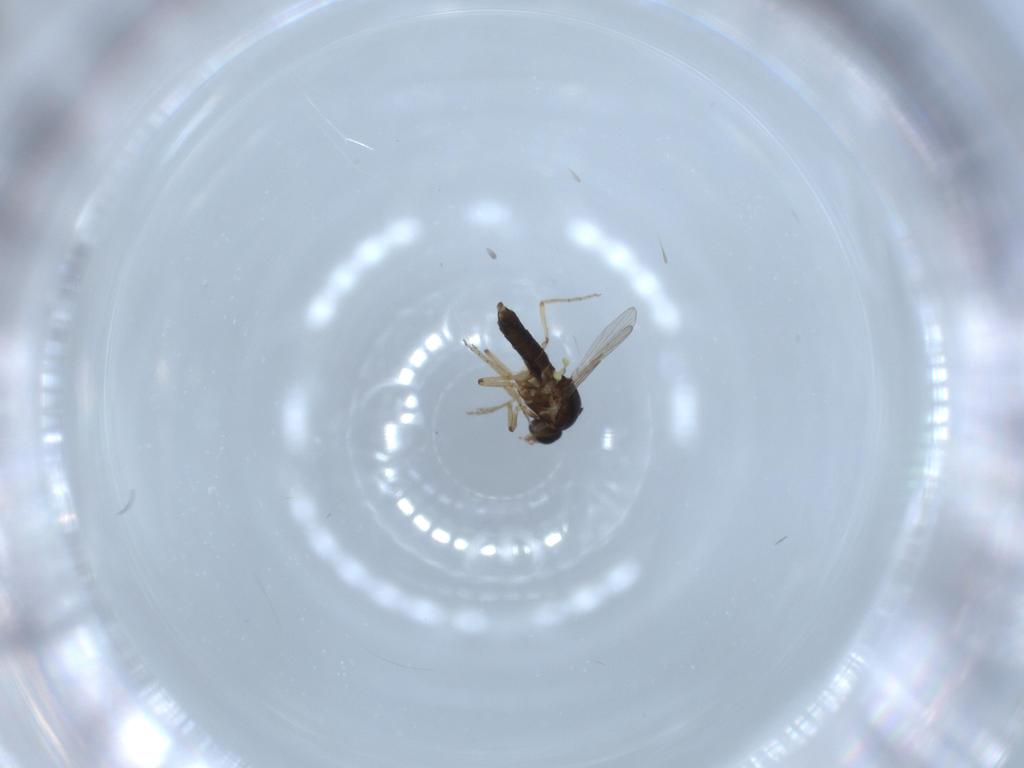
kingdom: Animalia
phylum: Arthropoda
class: Insecta
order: Diptera
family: Ceratopogonidae
